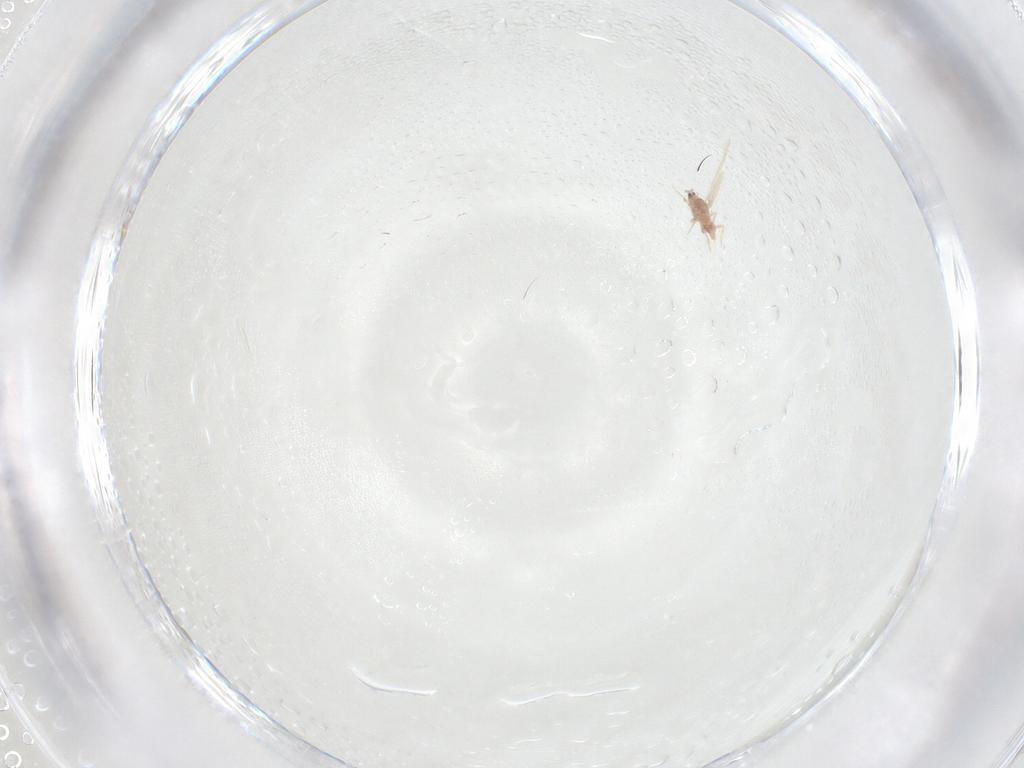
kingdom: Animalia
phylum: Arthropoda
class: Insecta
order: Hemiptera
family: Cicadellidae
